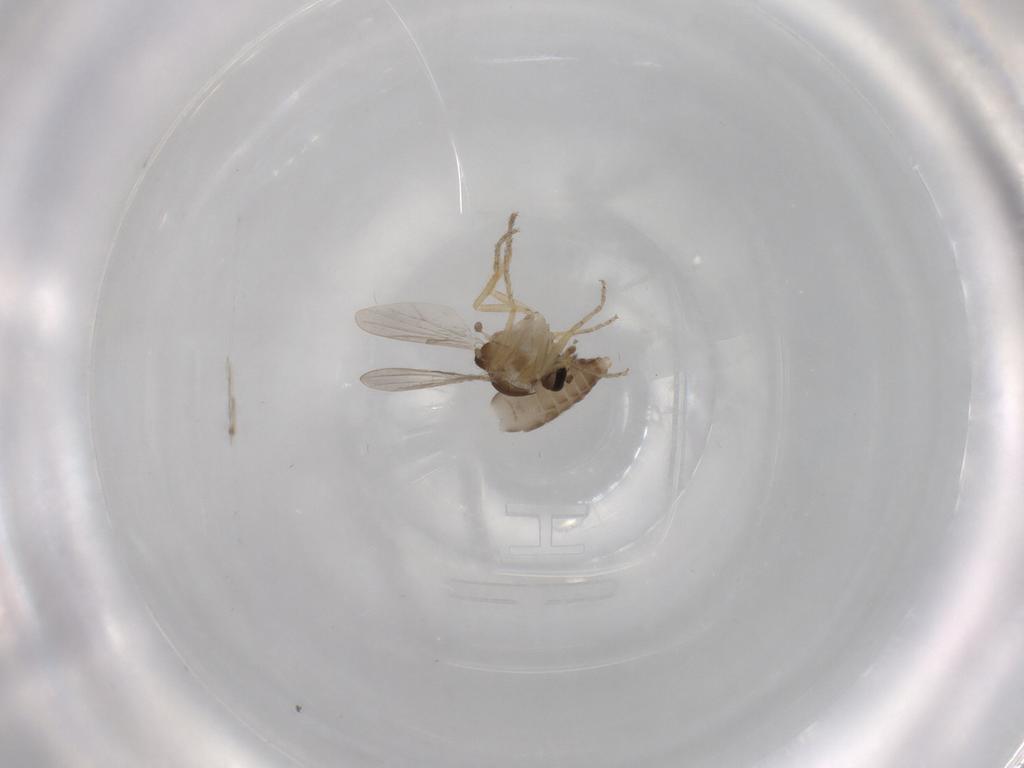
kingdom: Animalia
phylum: Arthropoda
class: Insecta
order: Diptera
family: Ceratopogonidae
